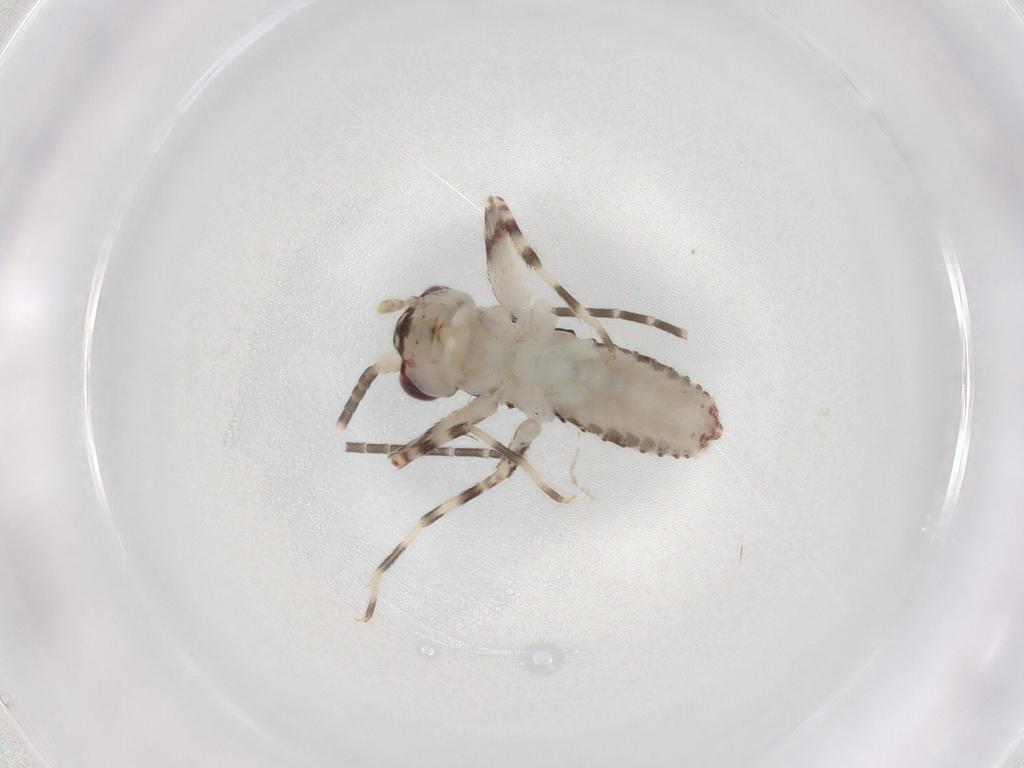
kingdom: Animalia
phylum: Arthropoda
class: Insecta
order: Orthoptera
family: Gryllidae
